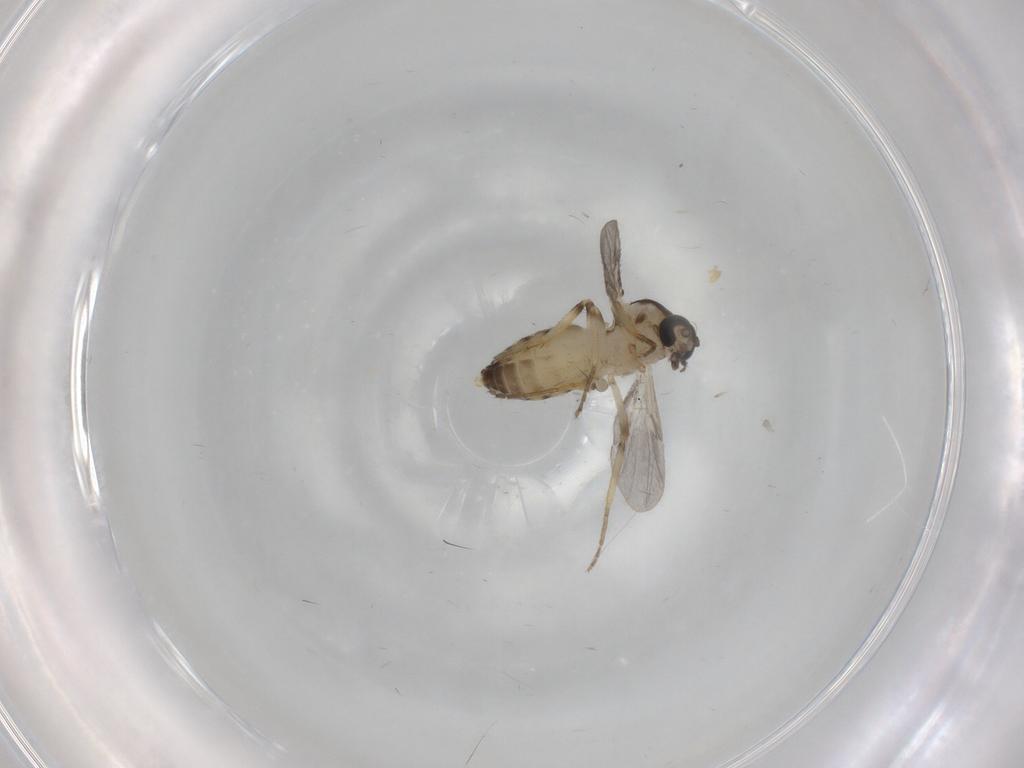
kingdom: Animalia
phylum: Arthropoda
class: Insecta
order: Diptera
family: Ceratopogonidae
